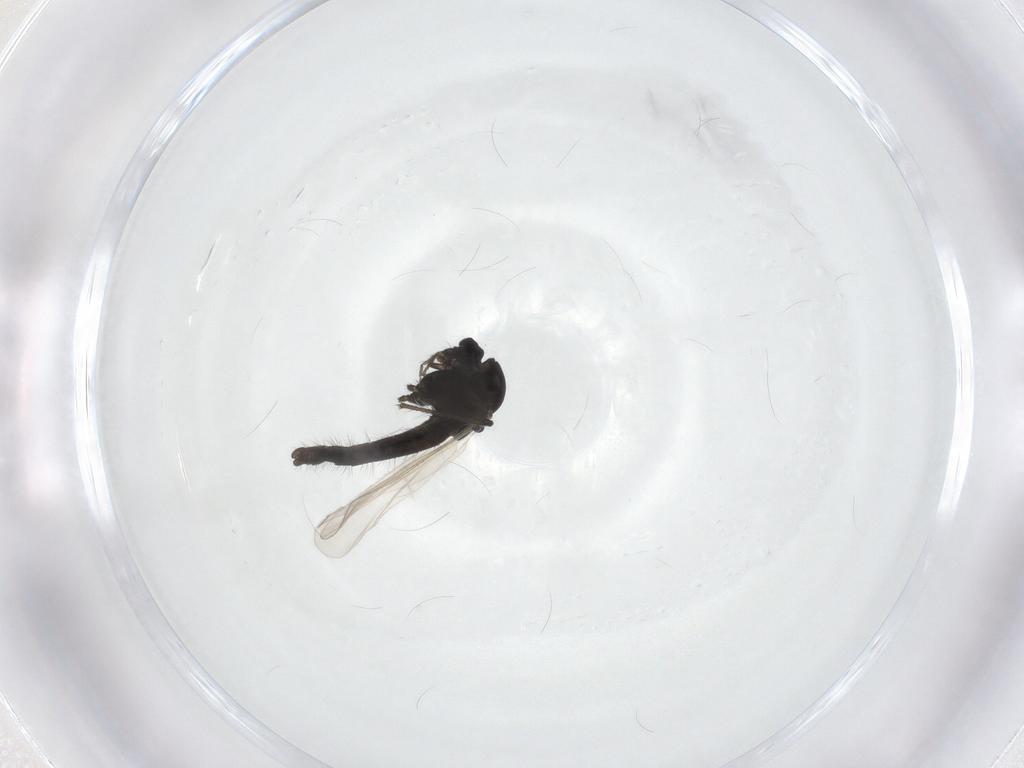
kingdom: Animalia
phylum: Arthropoda
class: Insecta
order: Diptera
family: Chironomidae
